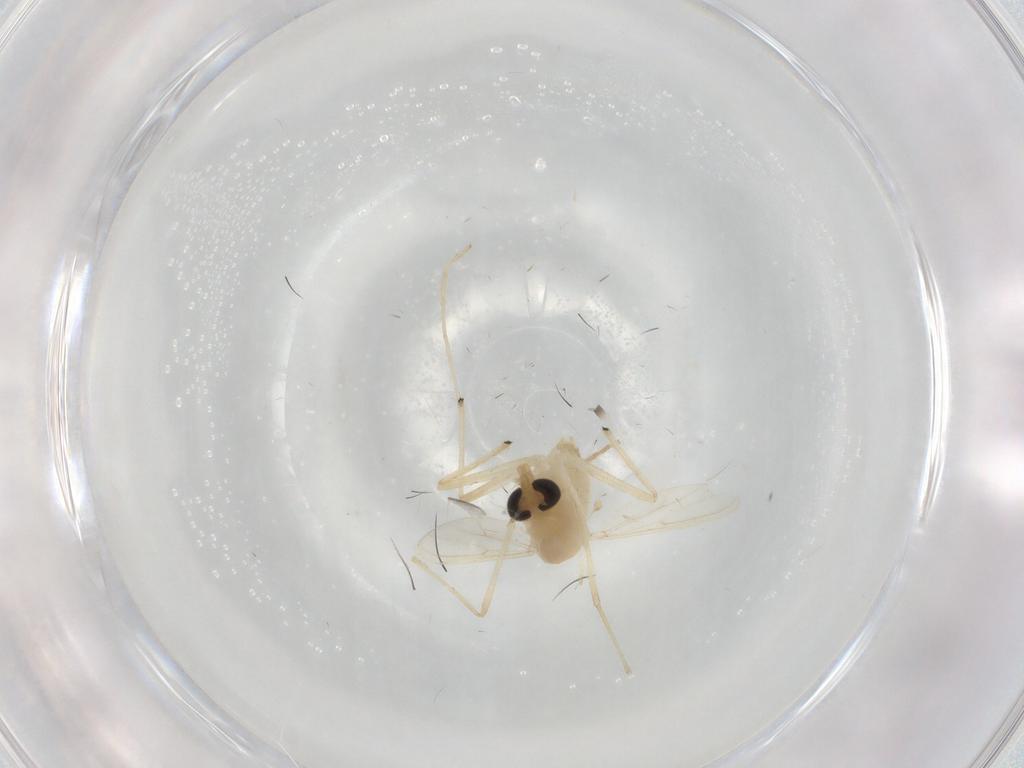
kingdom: Animalia
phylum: Arthropoda
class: Insecta
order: Diptera
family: Chironomidae
